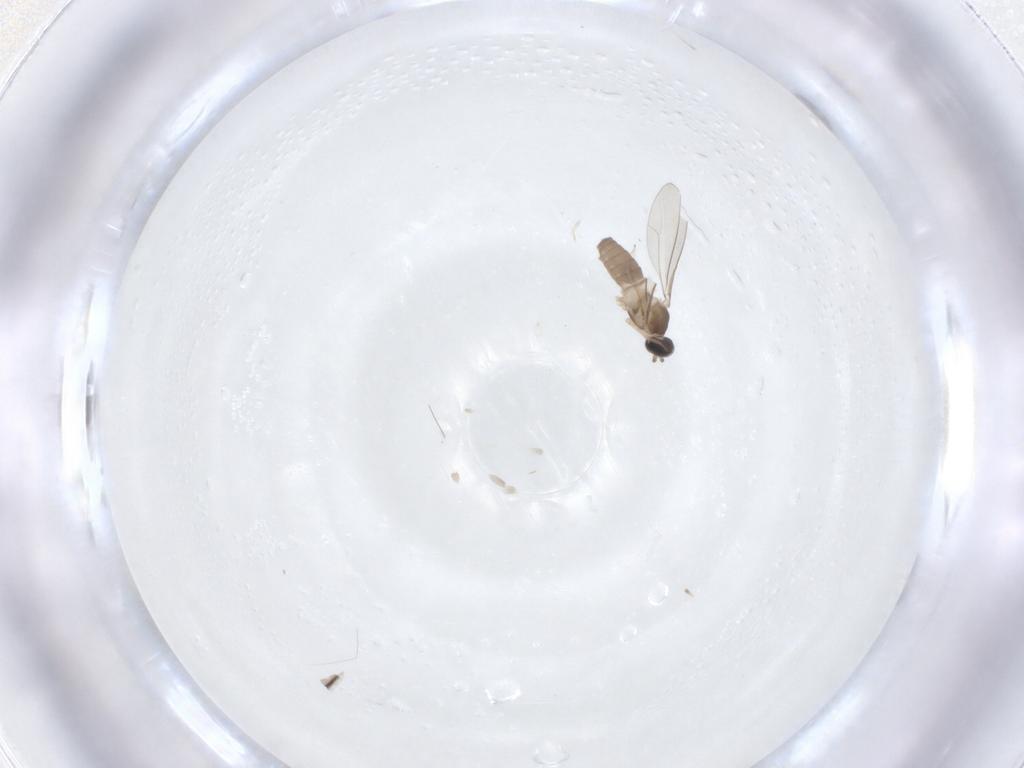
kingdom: Animalia
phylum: Arthropoda
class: Insecta
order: Diptera
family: Cecidomyiidae
